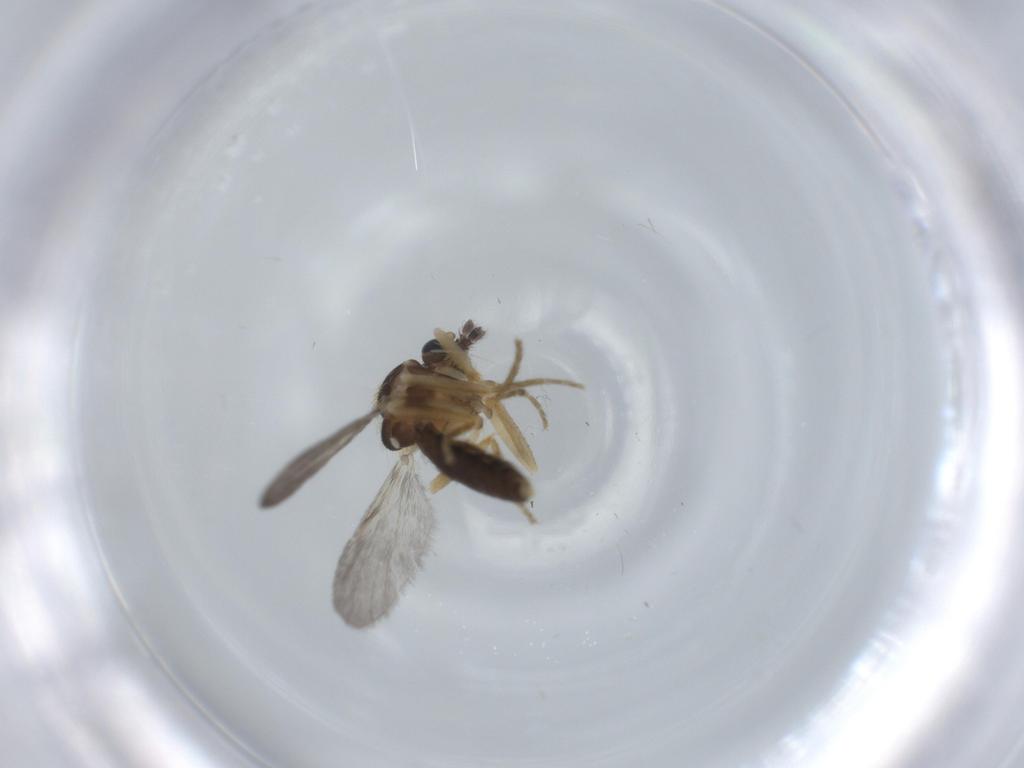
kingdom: Animalia
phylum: Arthropoda
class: Insecta
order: Diptera
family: Ceratopogonidae
